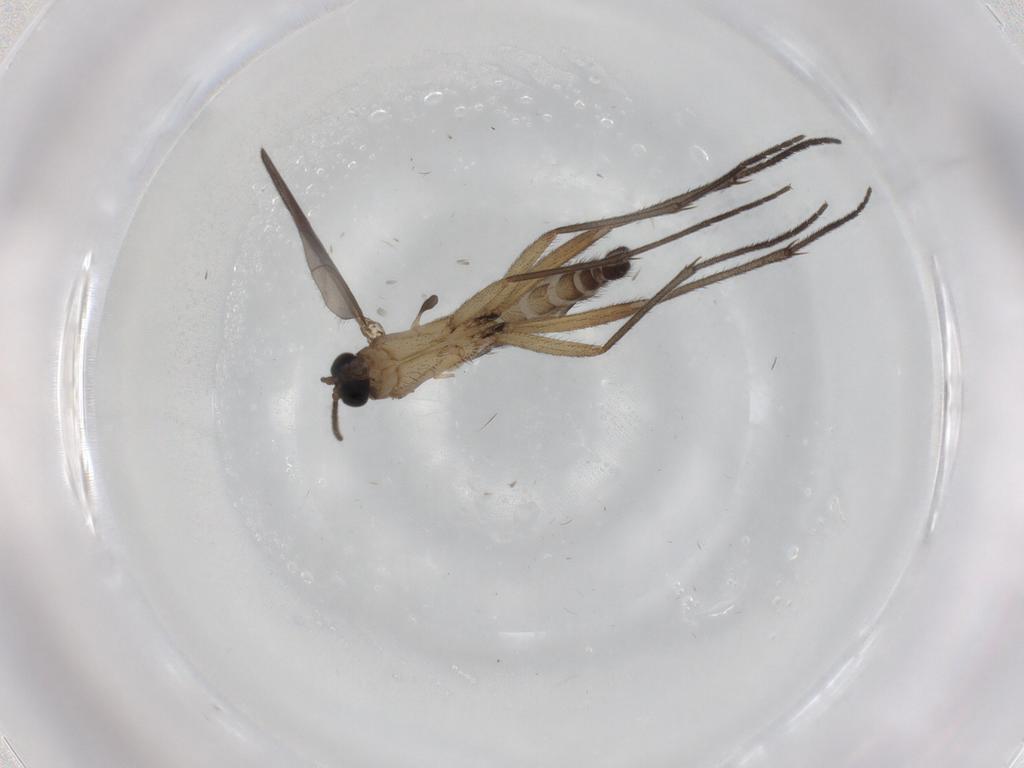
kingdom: Animalia
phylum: Arthropoda
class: Insecta
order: Diptera
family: Sciaridae
